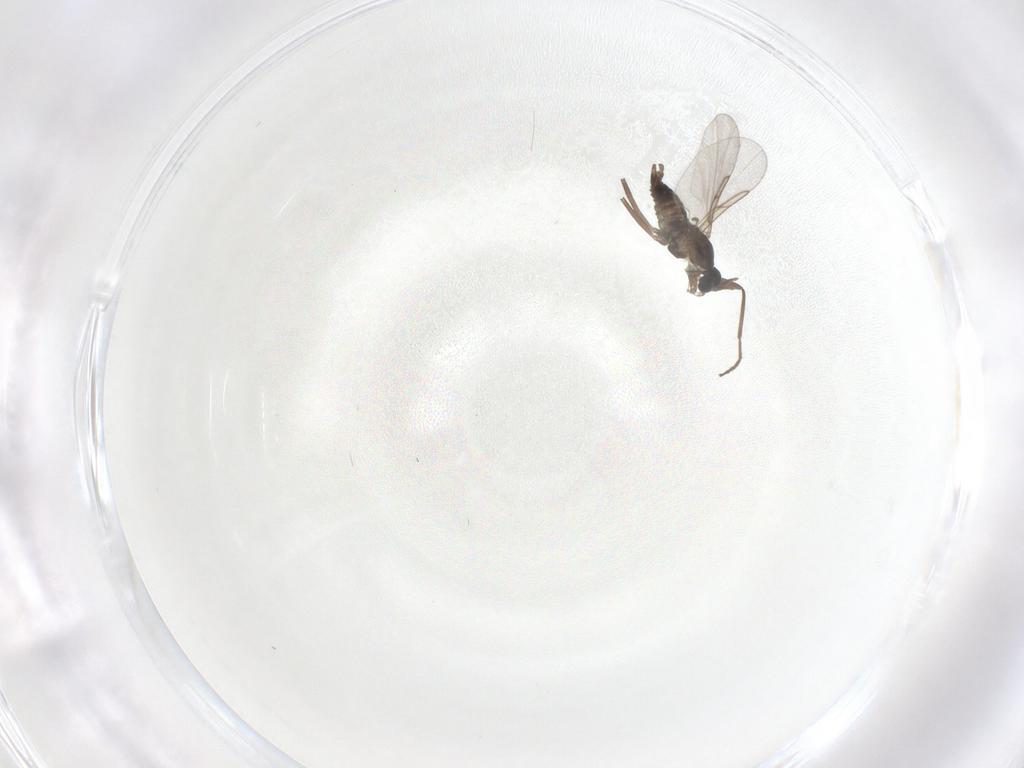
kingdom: Animalia
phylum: Arthropoda
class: Insecta
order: Diptera
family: Cecidomyiidae
